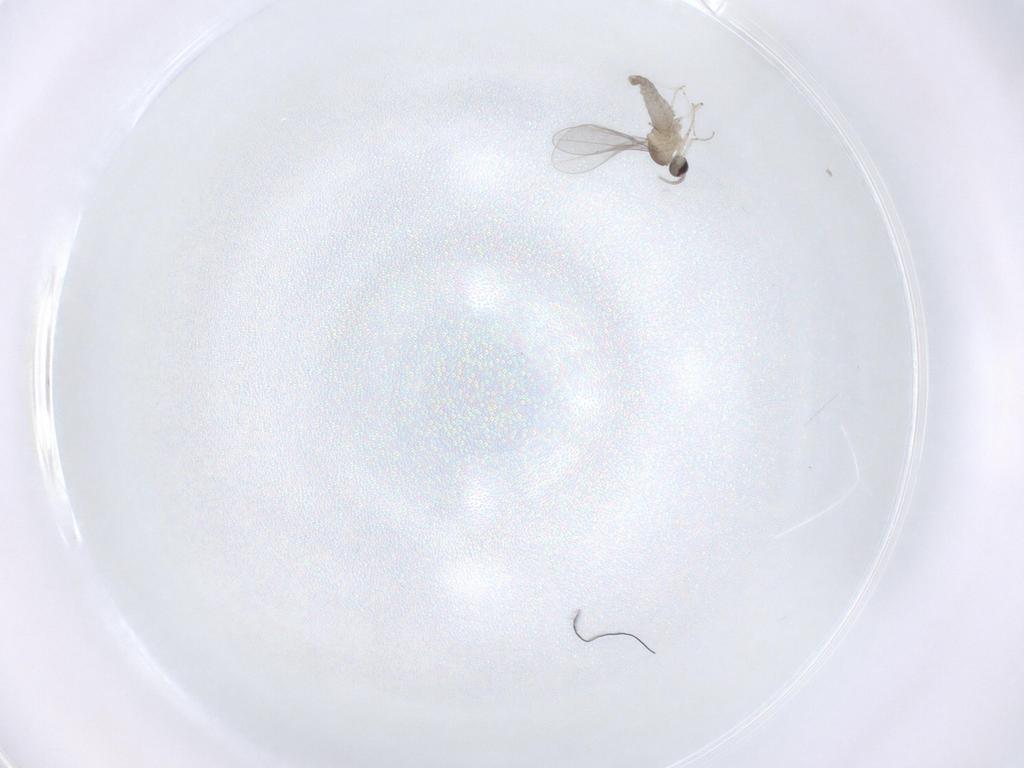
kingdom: Animalia
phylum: Arthropoda
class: Insecta
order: Diptera
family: Cecidomyiidae
